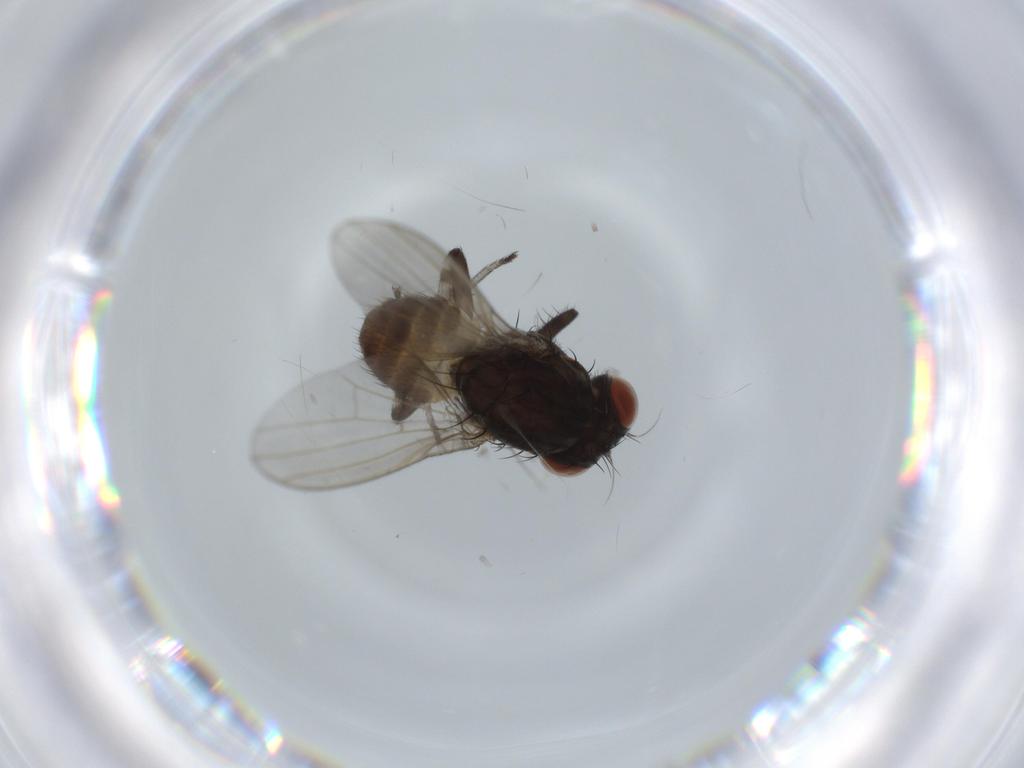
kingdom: Animalia
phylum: Arthropoda
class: Insecta
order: Diptera
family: Lauxaniidae
